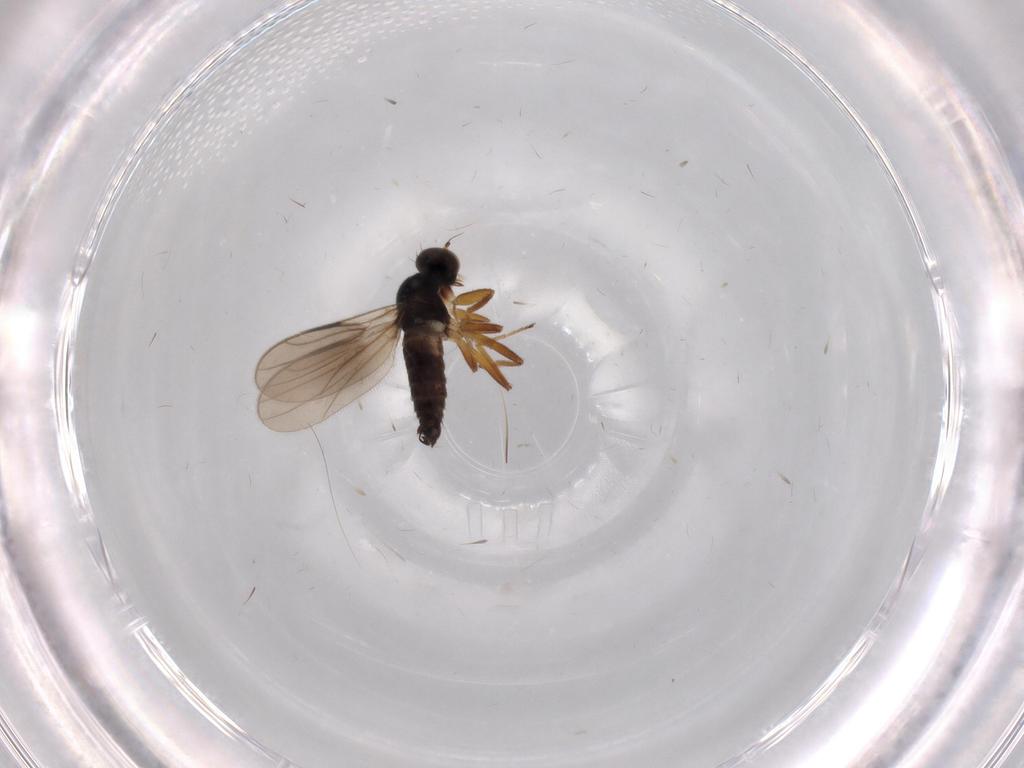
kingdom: Animalia
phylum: Arthropoda
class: Insecta
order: Diptera
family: Hybotidae
